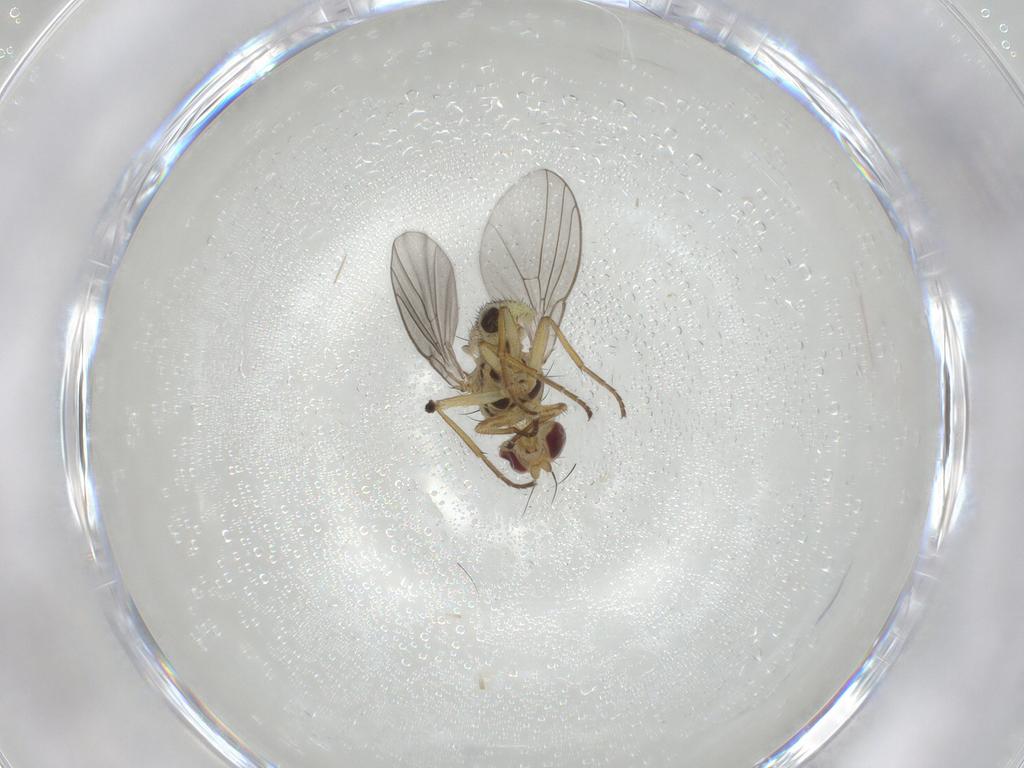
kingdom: Animalia
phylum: Arthropoda
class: Insecta
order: Diptera
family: Agromyzidae
